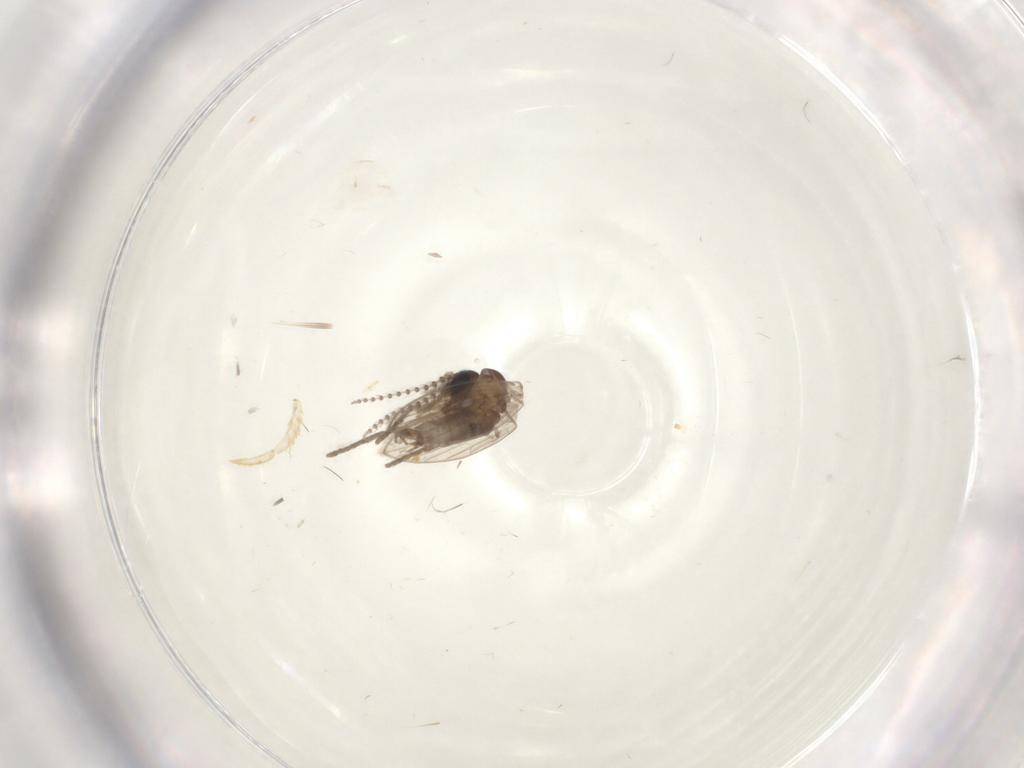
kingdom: Animalia
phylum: Arthropoda
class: Insecta
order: Diptera
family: Psychodidae
